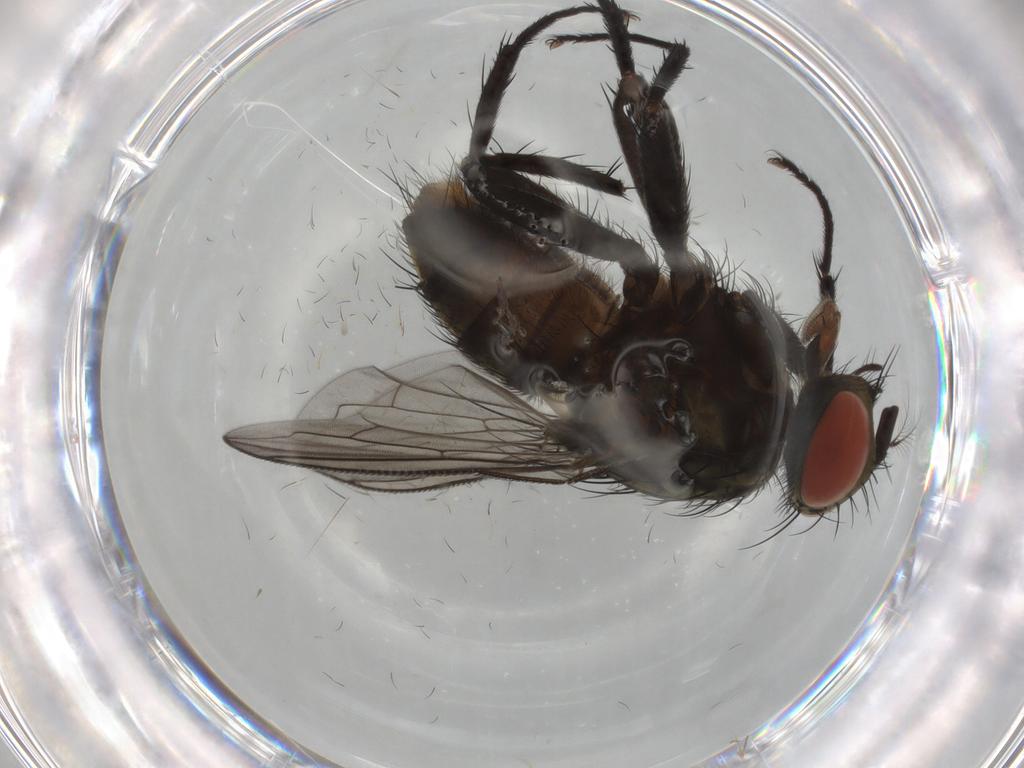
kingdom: Animalia
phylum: Arthropoda
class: Insecta
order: Diptera
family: Sarcophagidae
